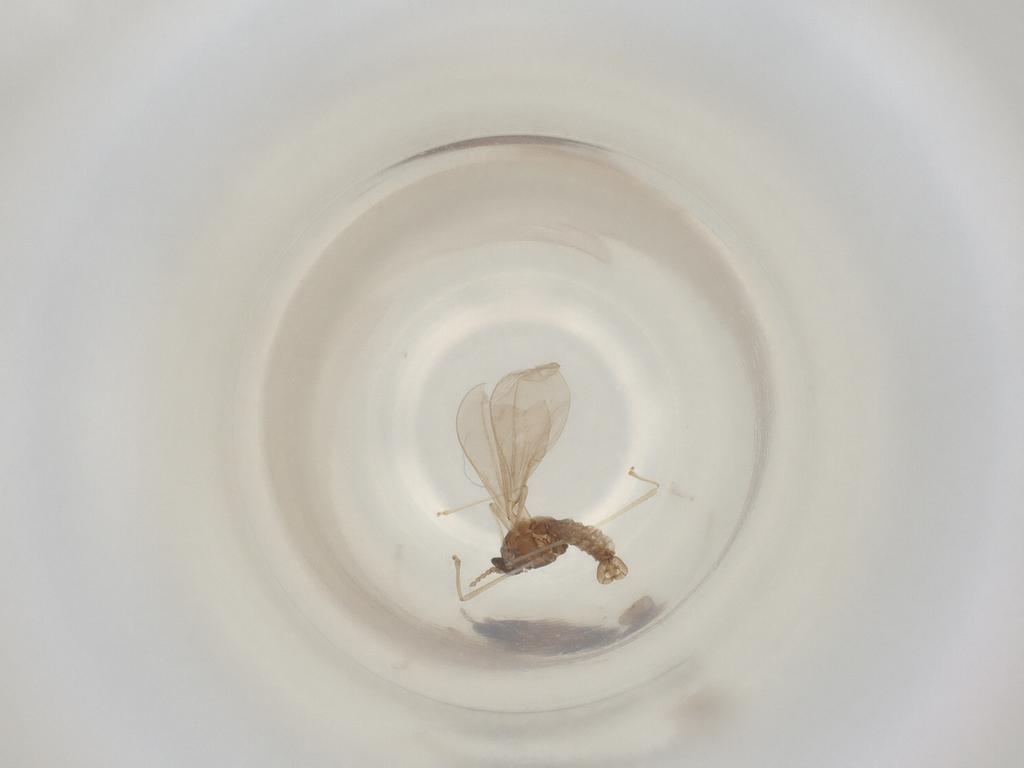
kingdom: Animalia
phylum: Arthropoda
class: Insecta
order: Diptera
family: Cecidomyiidae
